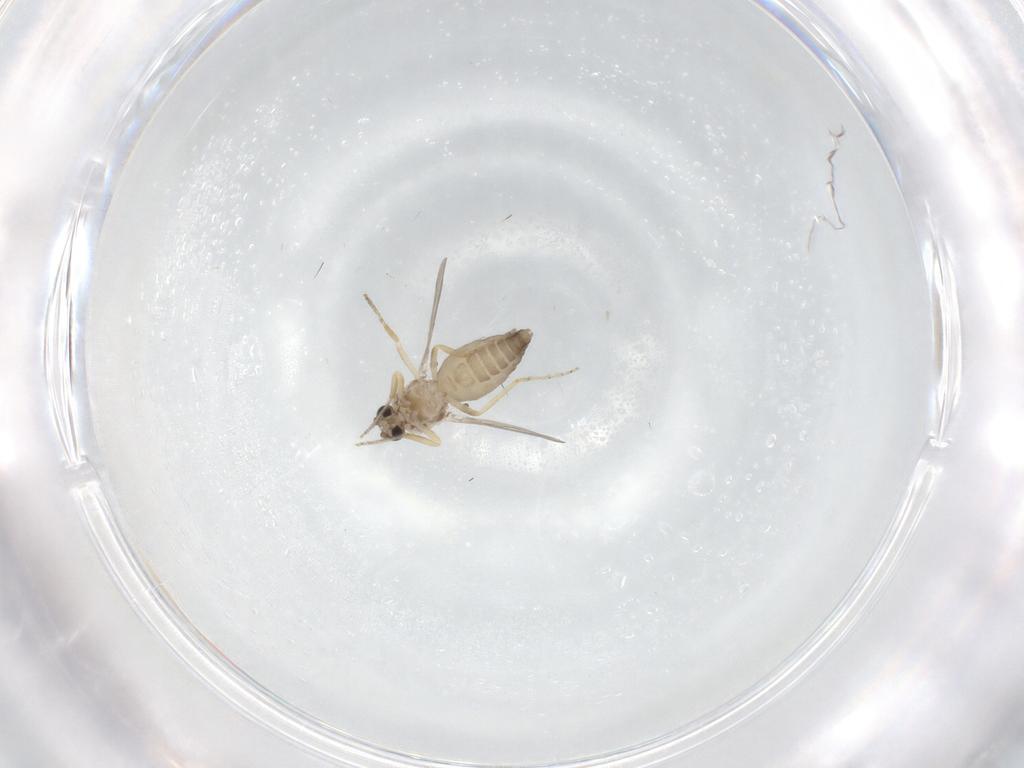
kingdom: Animalia
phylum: Arthropoda
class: Insecta
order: Diptera
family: Ceratopogonidae
